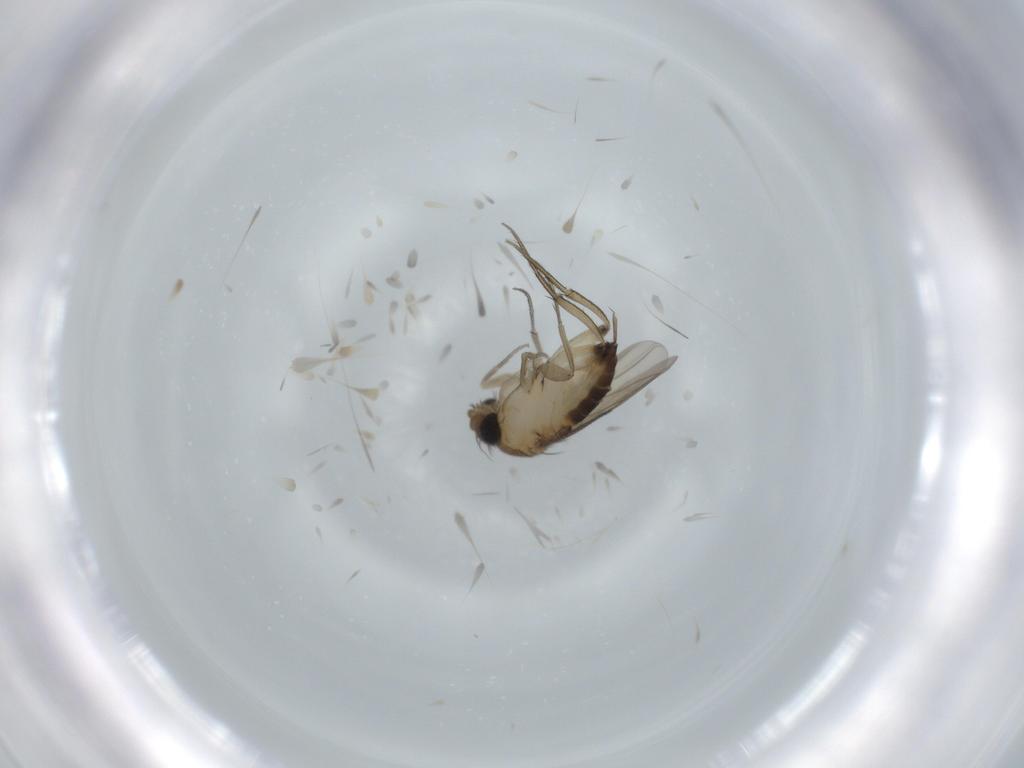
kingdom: Animalia
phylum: Arthropoda
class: Insecta
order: Diptera
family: Phoridae
